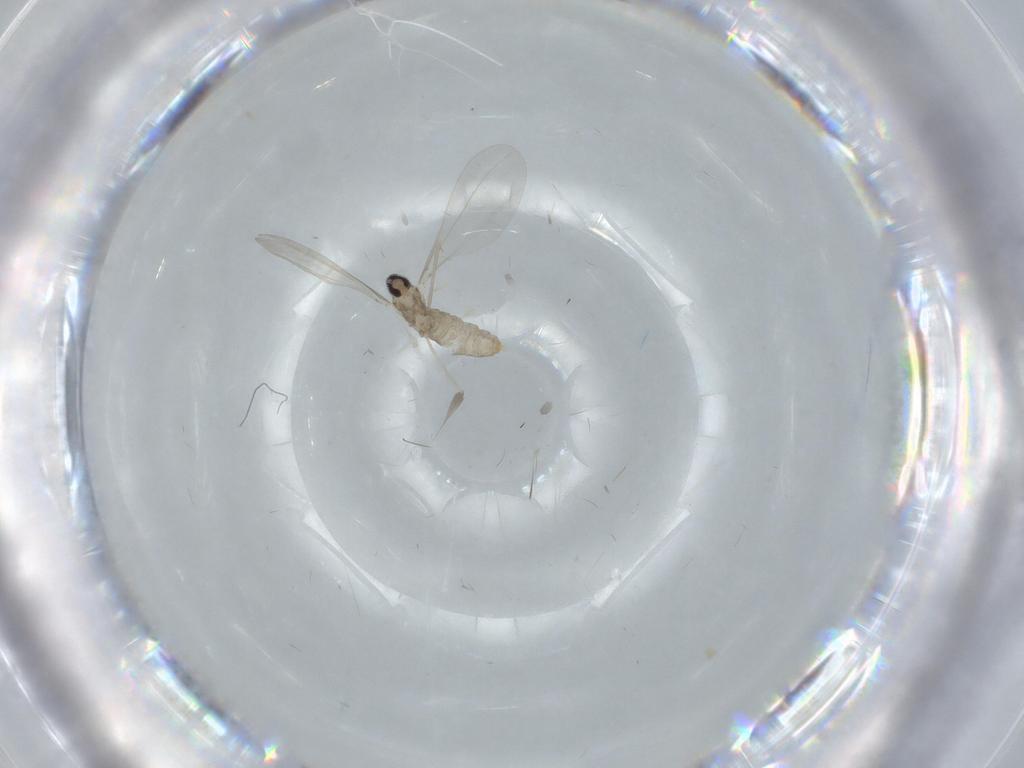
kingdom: Animalia
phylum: Arthropoda
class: Insecta
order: Diptera
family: Cecidomyiidae
